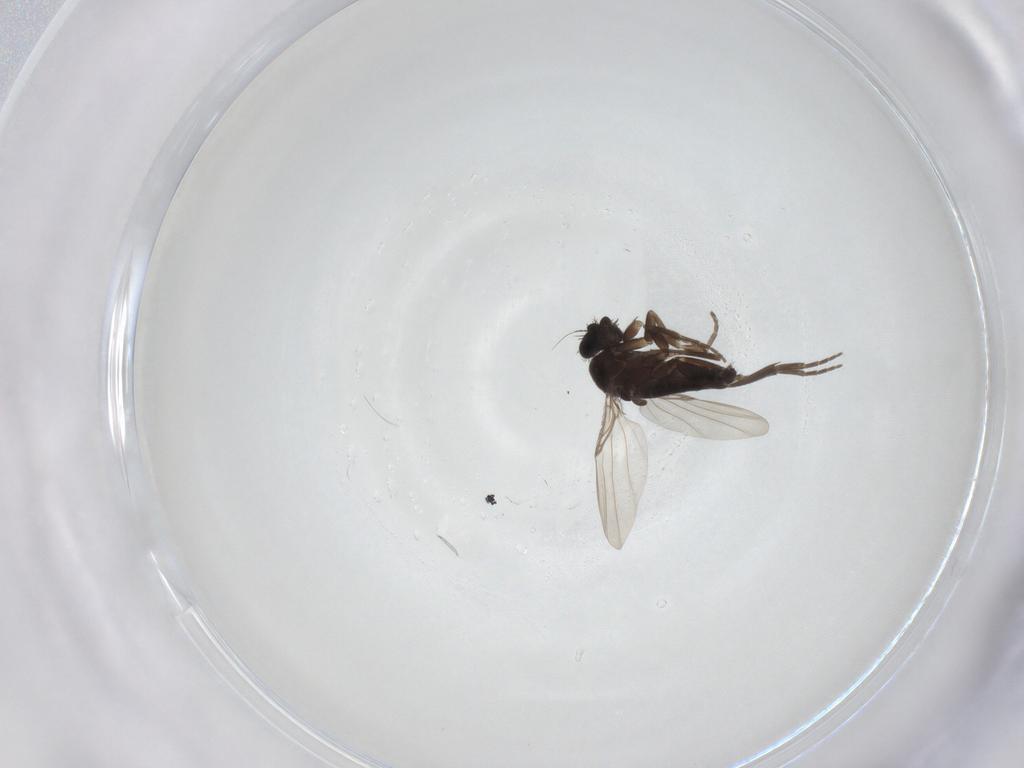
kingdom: Animalia
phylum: Arthropoda
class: Insecta
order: Diptera
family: Phoridae
